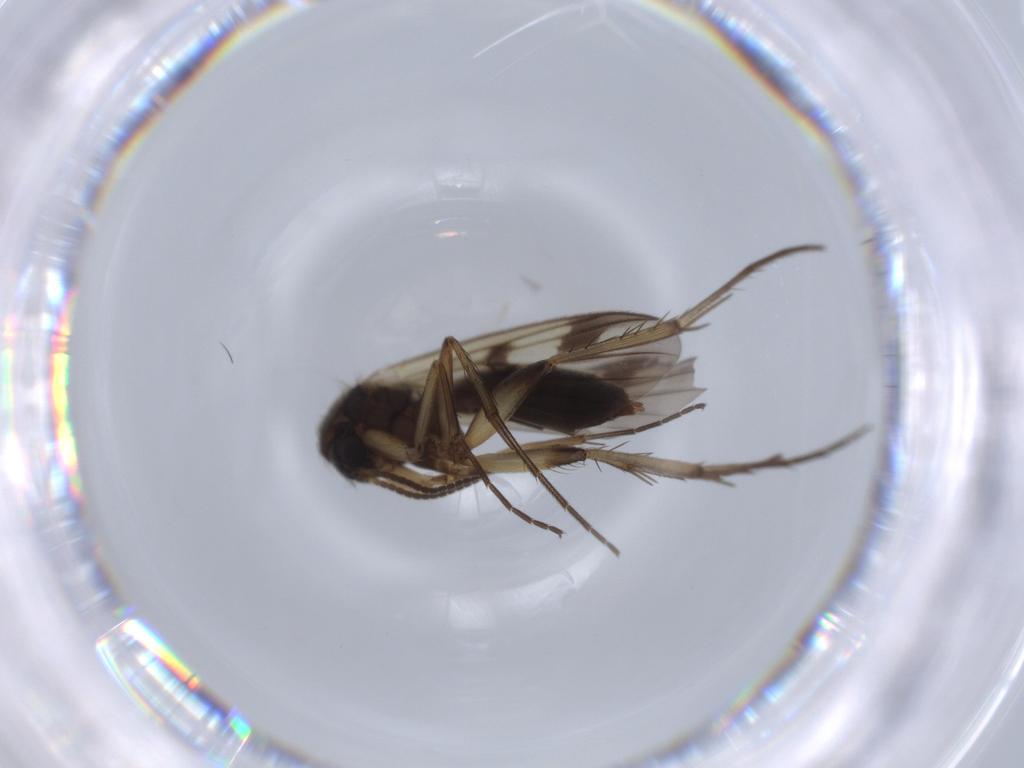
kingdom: Animalia
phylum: Arthropoda
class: Insecta
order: Diptera
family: Mycetophilidae
